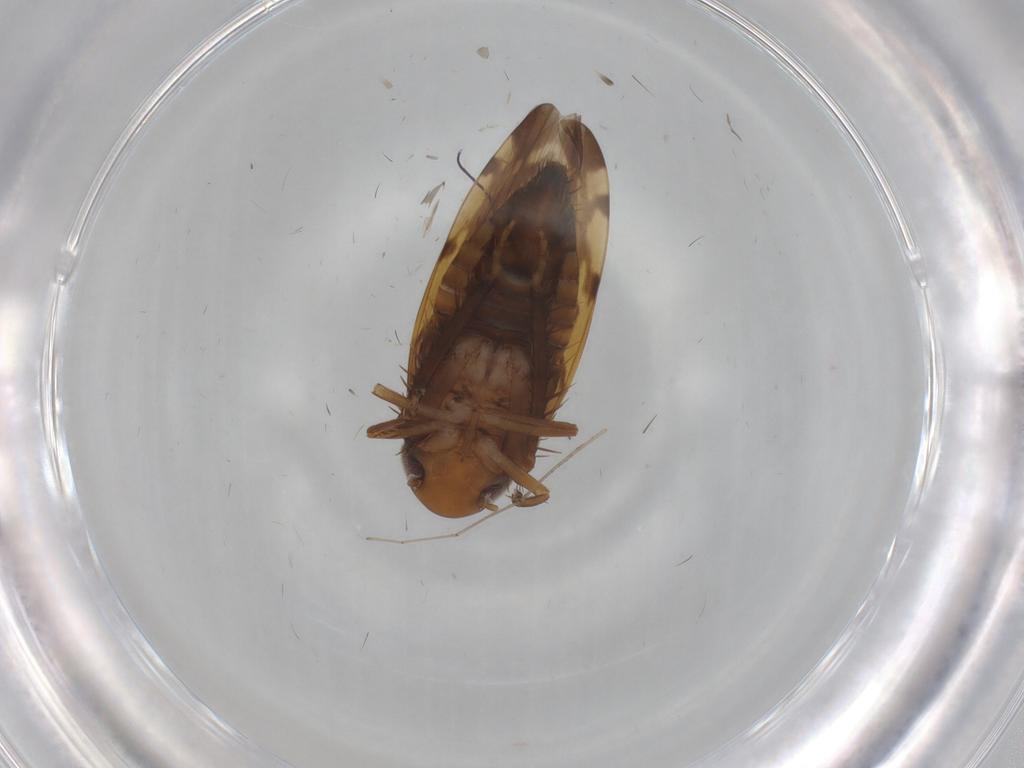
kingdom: Animalia
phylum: Arthropoda
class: Insecta
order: Hemiptera
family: Cicadellidae
